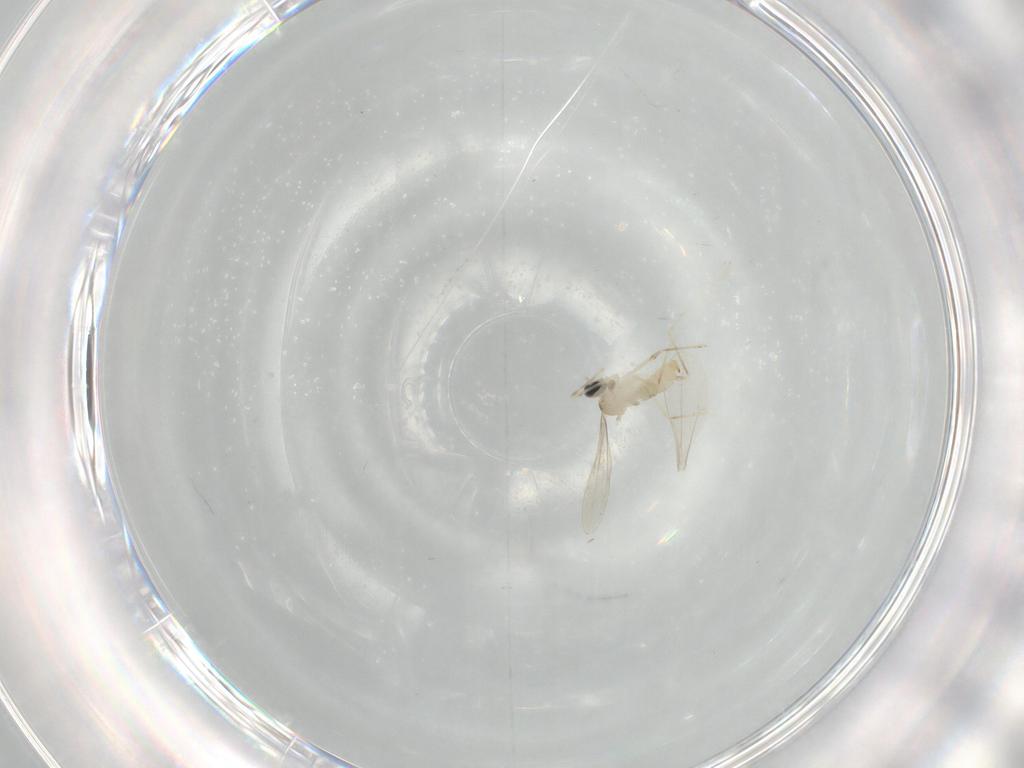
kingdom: Animalia
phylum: Arthropoda
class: Insecta
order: Diptera
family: Cecidomyiidae
